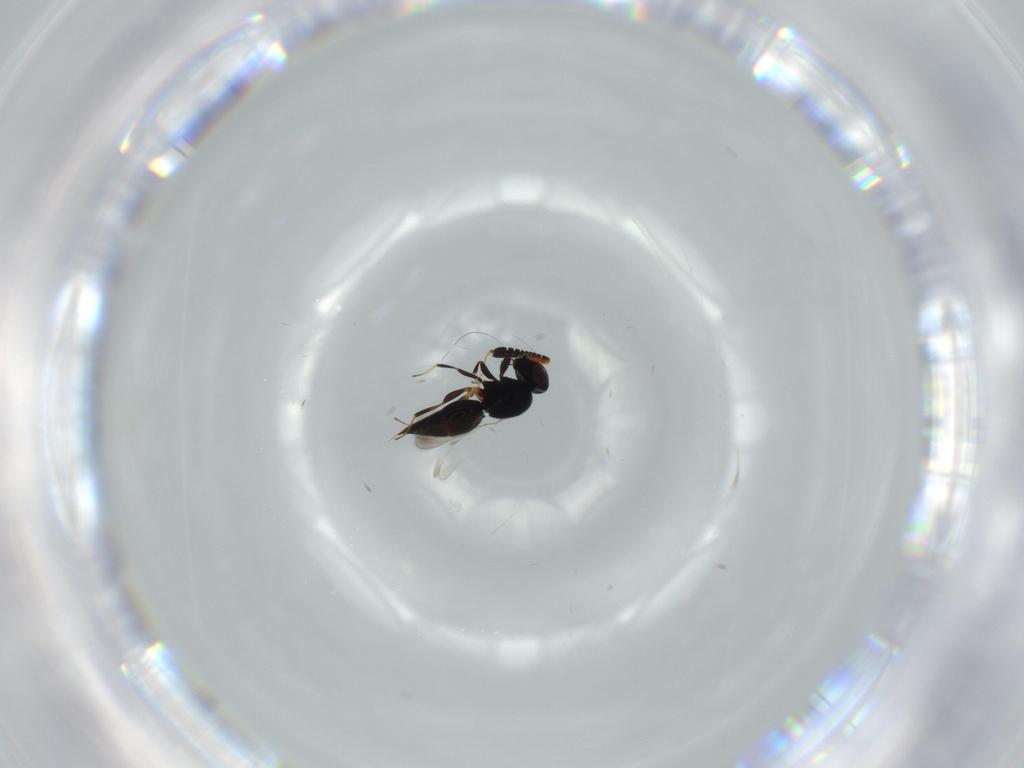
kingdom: Animalia
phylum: Arthropoda
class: Insecta
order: Hymenoptera
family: Ceraphronidae
